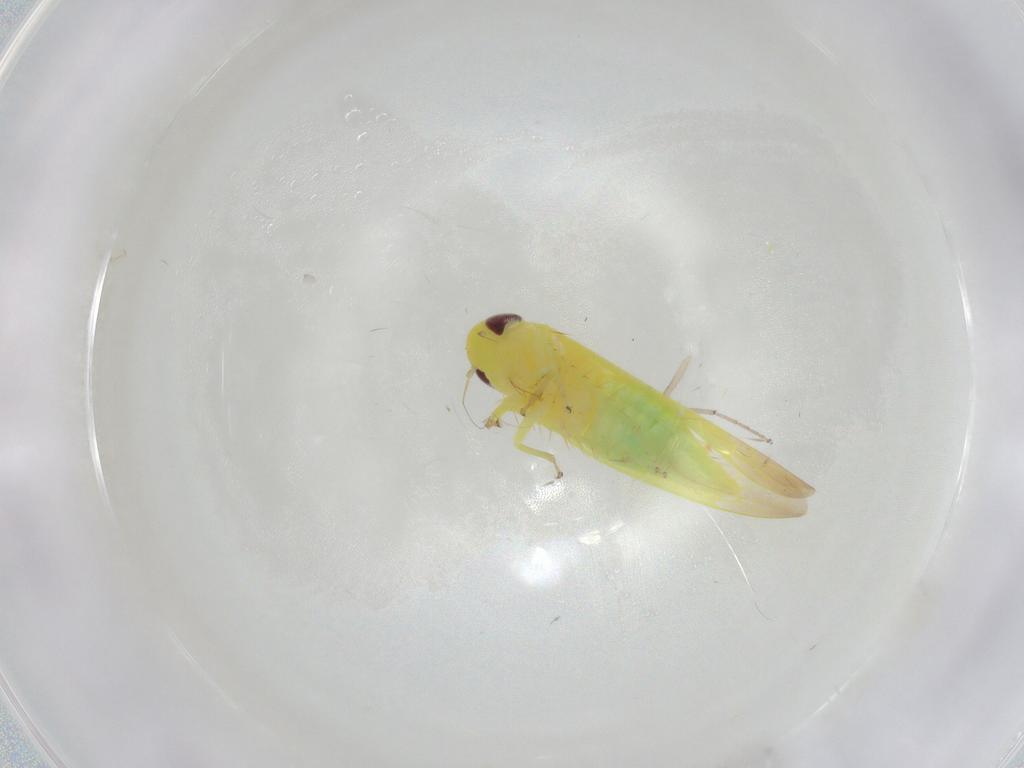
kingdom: Animalia
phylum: Arthropoda
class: Insecta
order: Hemiptera
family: Cicadellidae
